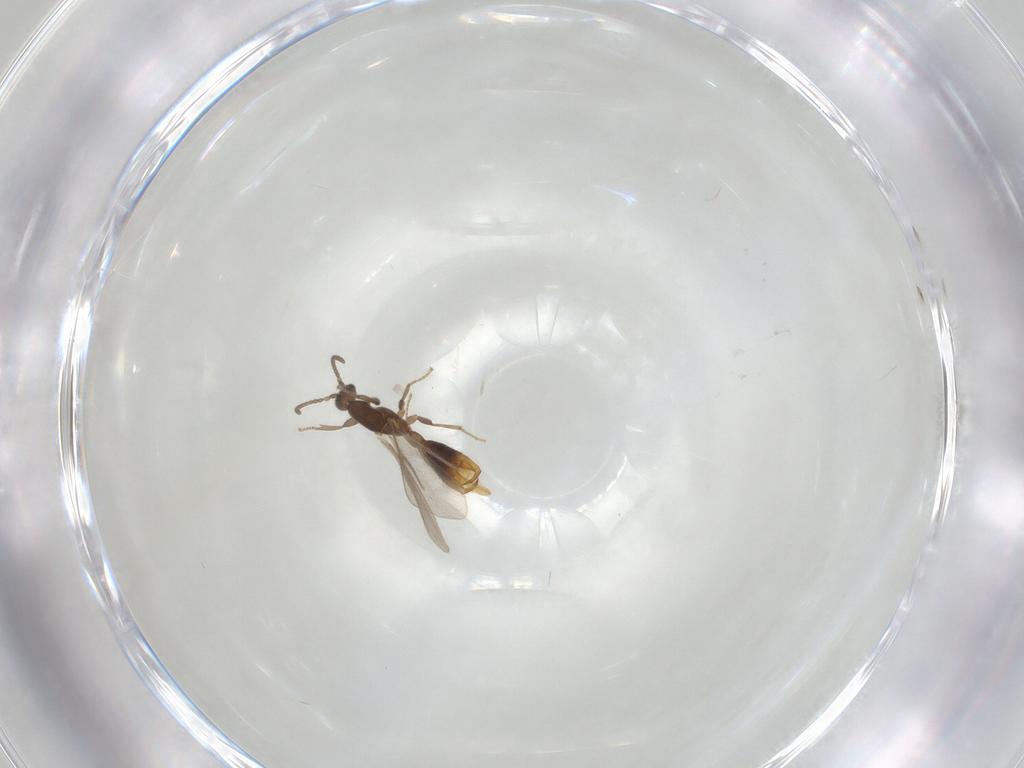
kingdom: Animalia
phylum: Arthropoda
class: Insecta
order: Hymenoptera
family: Formicidae
